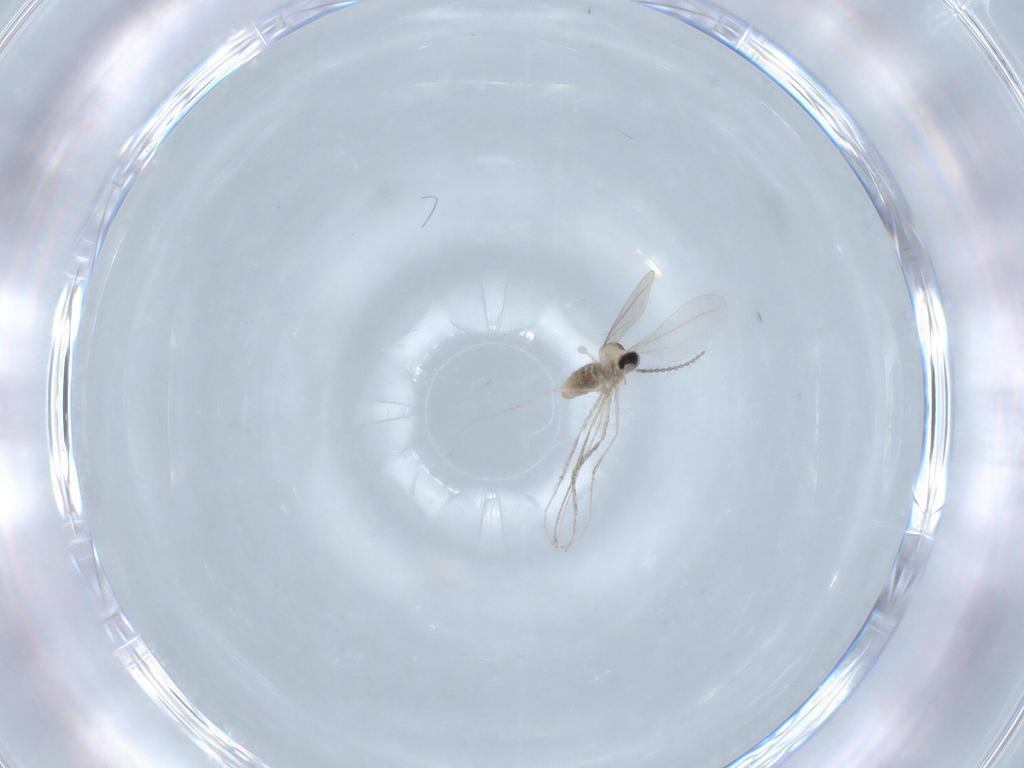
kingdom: Animalia
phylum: Arthropoda
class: Insecta
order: Diptera
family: Cecidomyiidae
